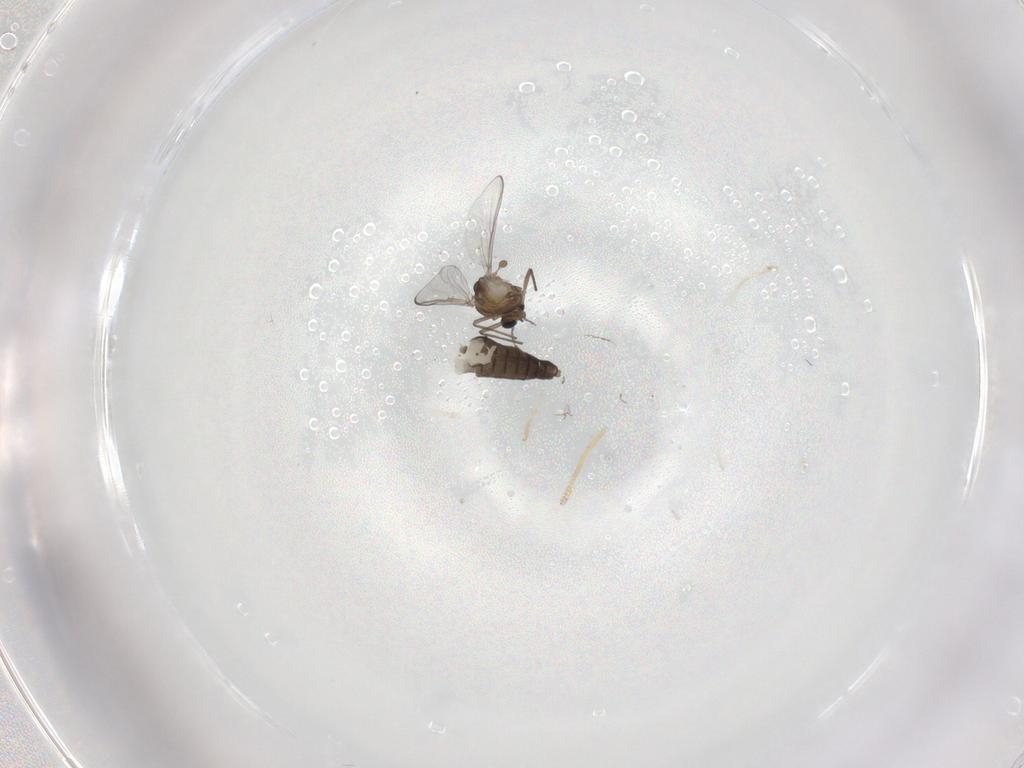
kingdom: Animalia
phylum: Arthropoda
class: Insecta
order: Diptera
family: Chironomidae
